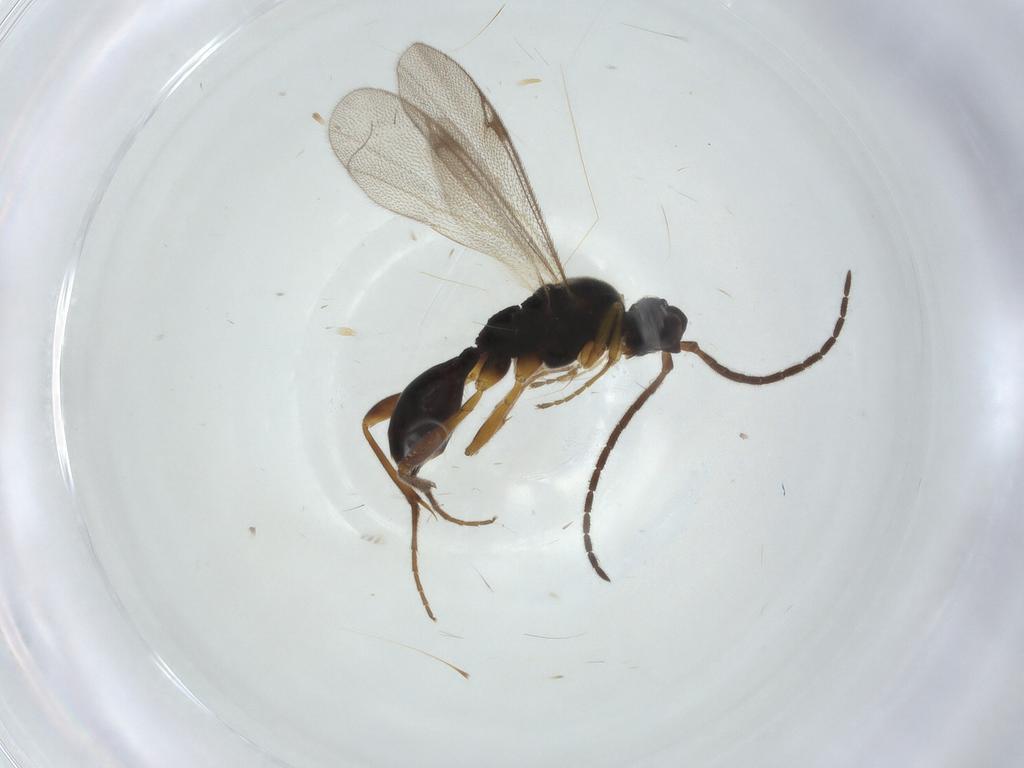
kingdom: Animalia
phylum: Arthropoda
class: Insecta
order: Hymenoptera
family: Proctotrupidae
